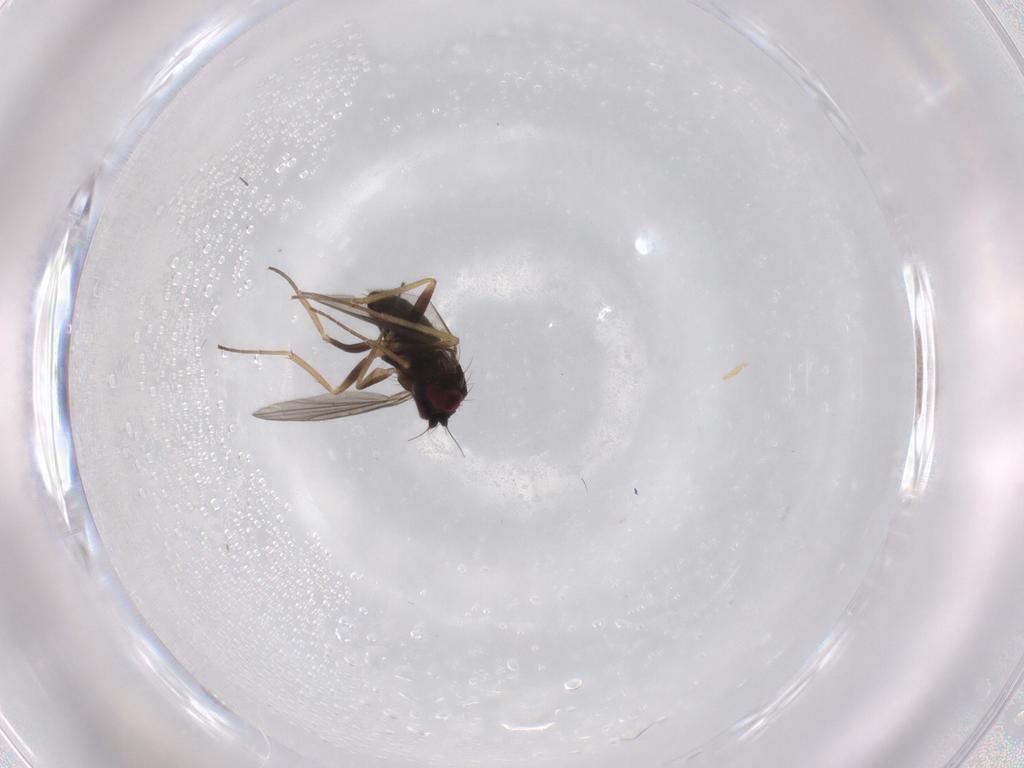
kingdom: Animalia
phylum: Arthropoda
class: Insecta
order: Diptera
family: Dolichopodidae
